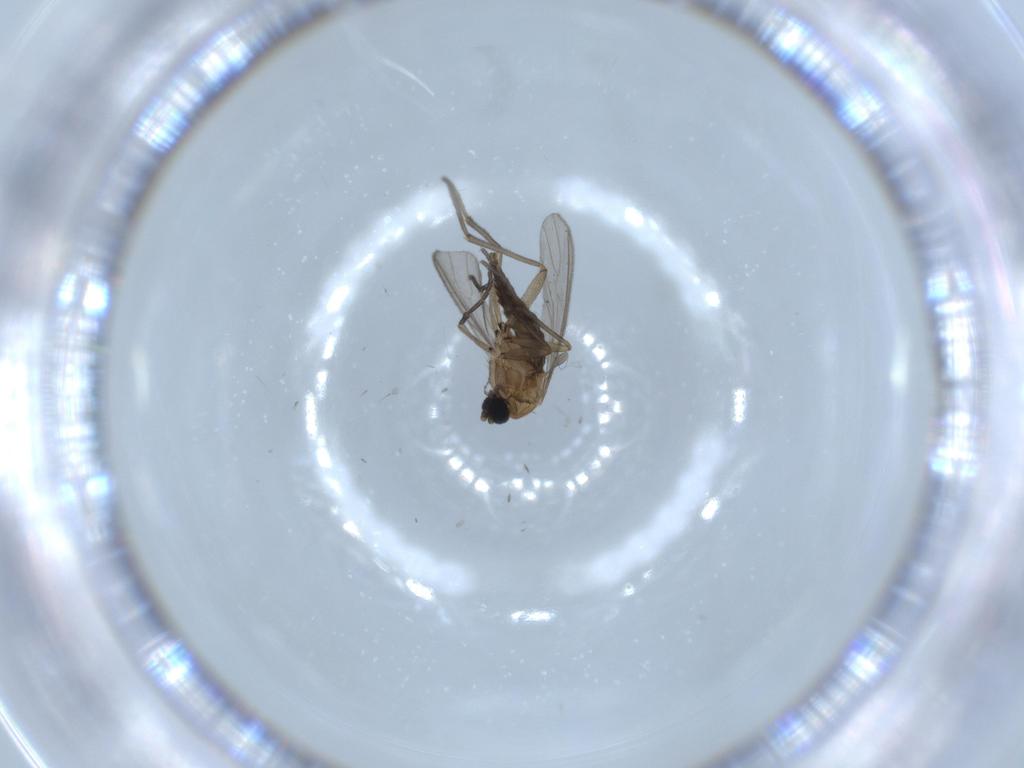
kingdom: Animalia
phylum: Arthropoda
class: Insecta
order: Diptera
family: Sciaridae
